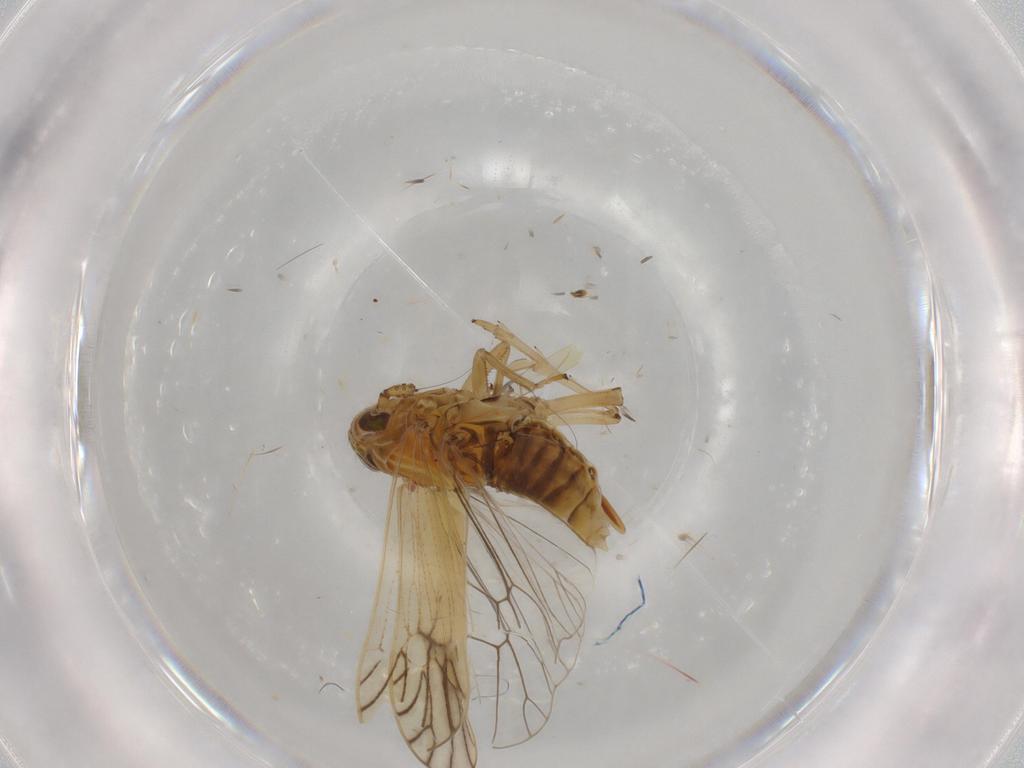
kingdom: Animalia
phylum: Arthropoda
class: Insecta
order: Hemiptera
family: Delphacidae
